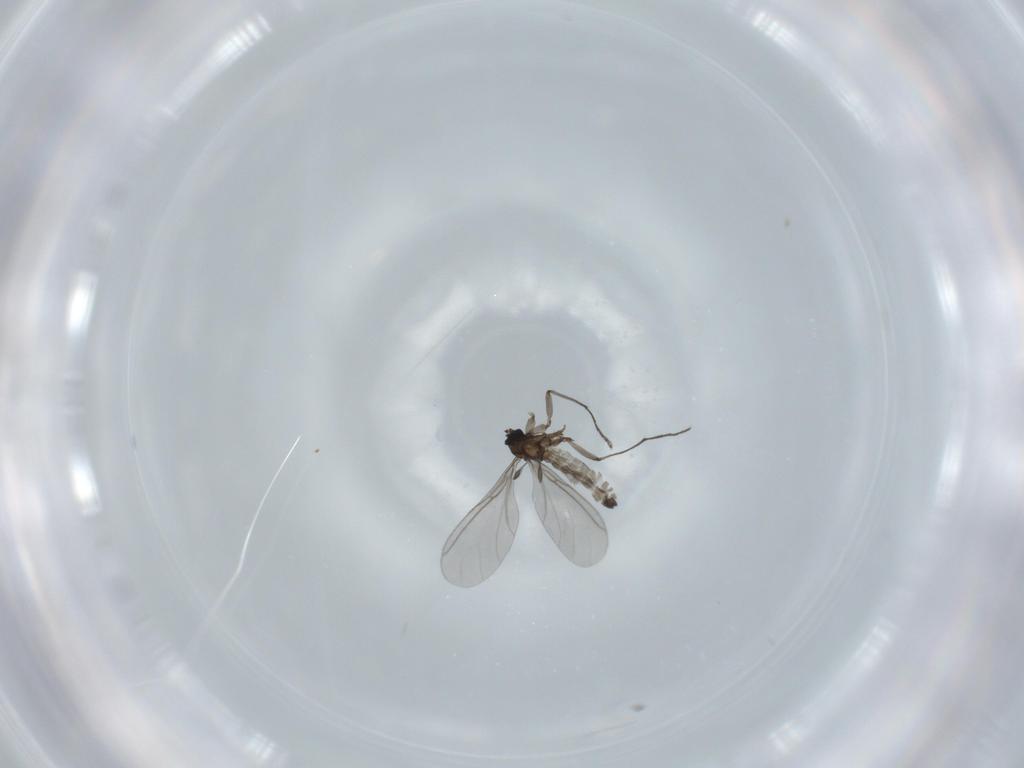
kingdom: Animalia
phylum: Arthropoda
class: Insecta
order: Diptera
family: Sciaridae
